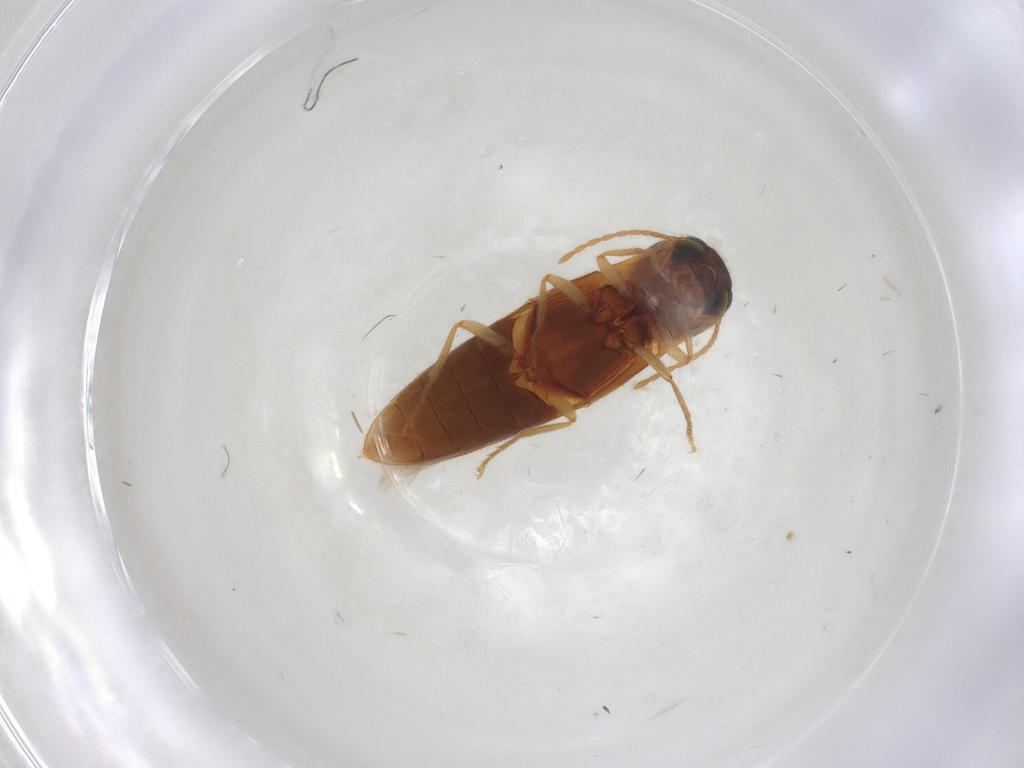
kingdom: Animalia
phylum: Arthropoda
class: Insecta
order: Coleoptera
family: Elateridae
